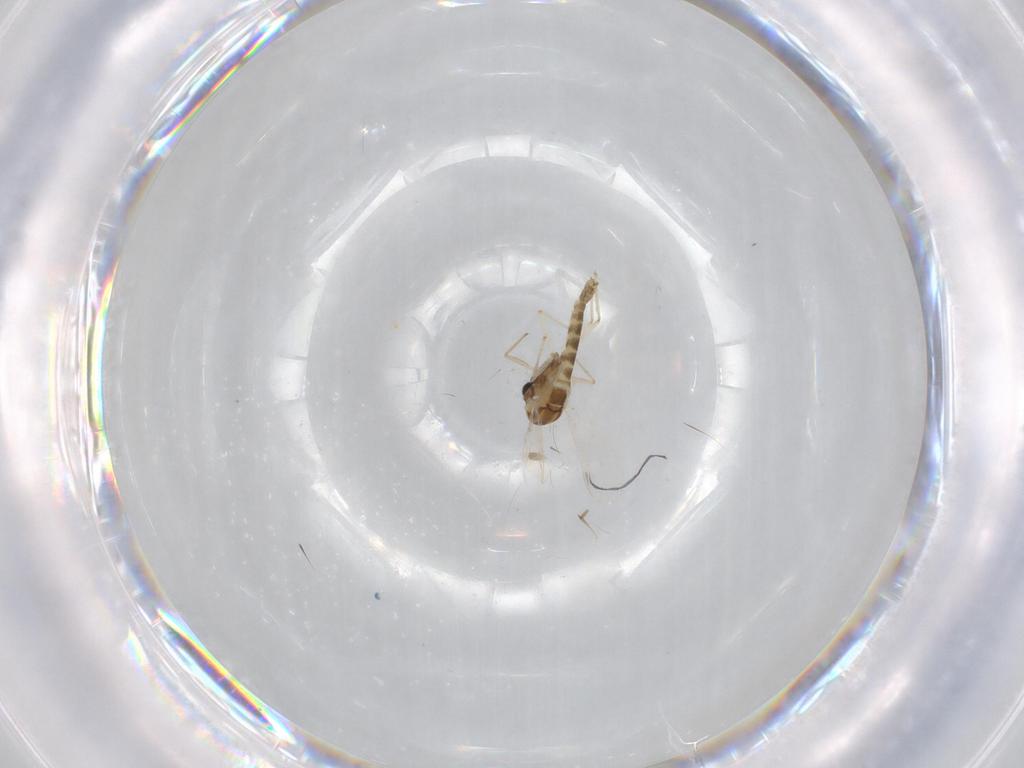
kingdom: Animalia
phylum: Arthropoda
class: Insecta
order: Diptera
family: Chironomidae
